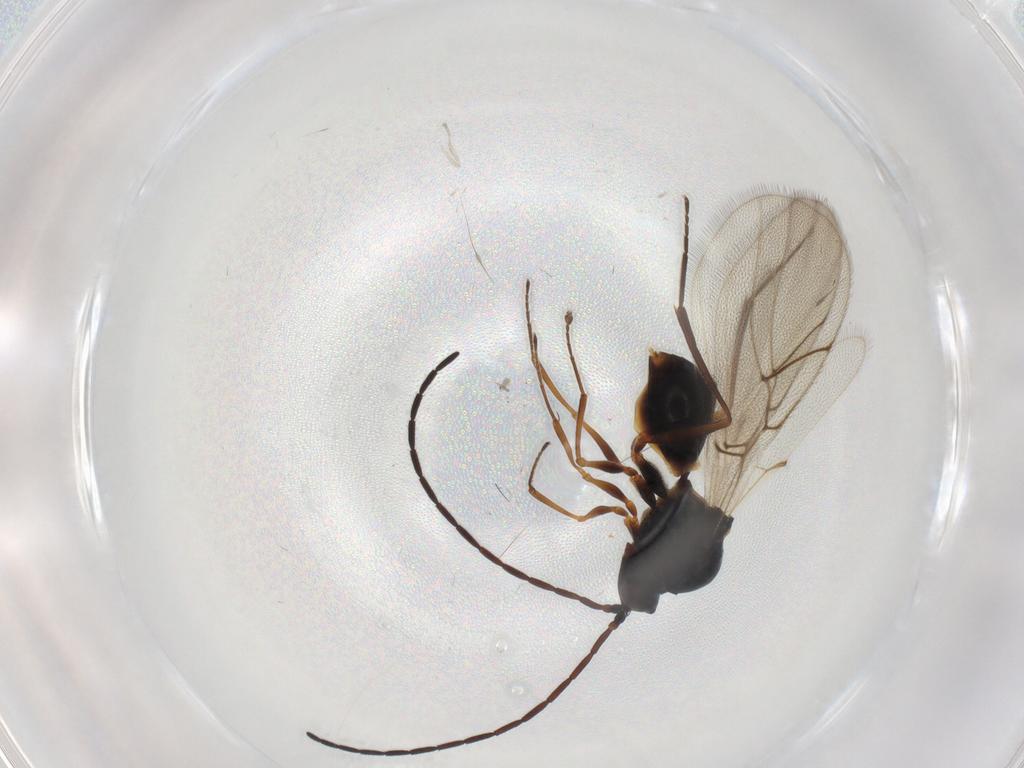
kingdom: Animalia
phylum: Arthropoda
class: Insecta
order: Hymenoptera
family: Figitidae
